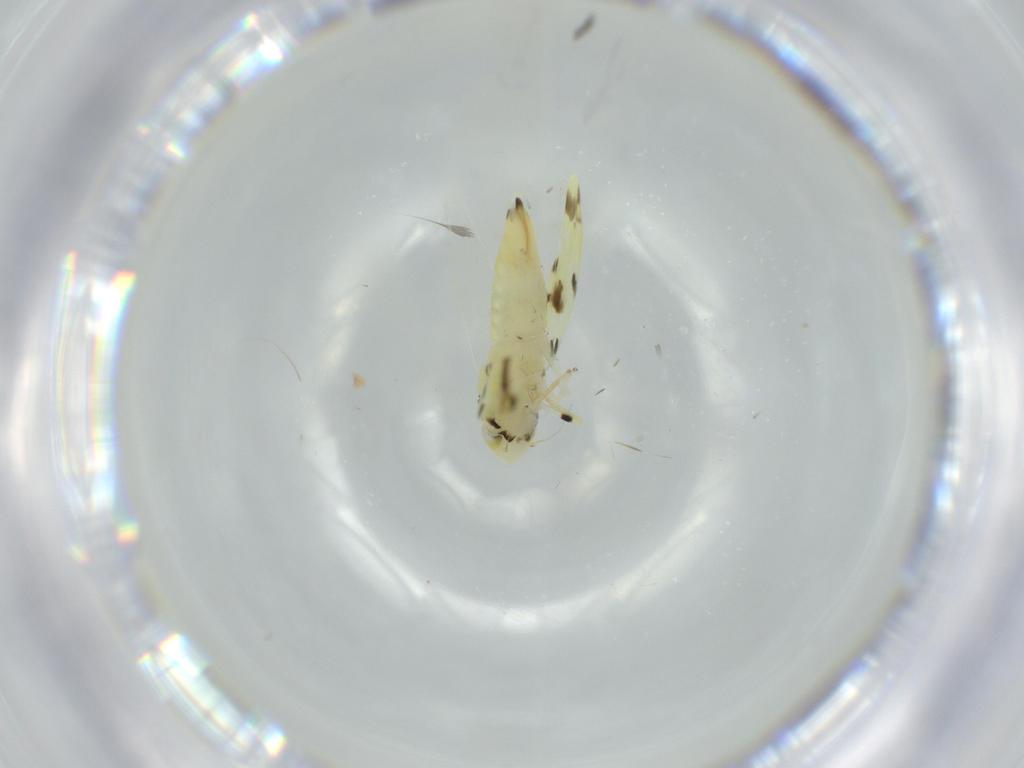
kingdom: Animalia
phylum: Arthropoda
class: Insecta
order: Hemiptera
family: Cicadellidae
